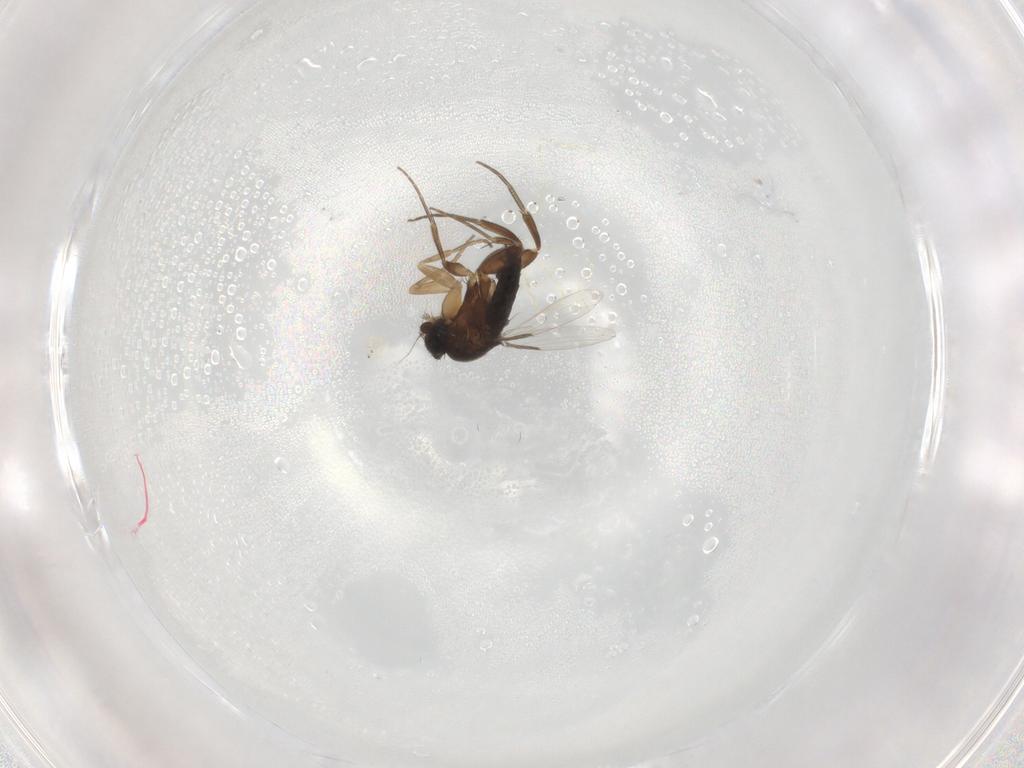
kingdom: Animalia
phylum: Arthropoda
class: Insecta
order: Diptera
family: Phoridae
